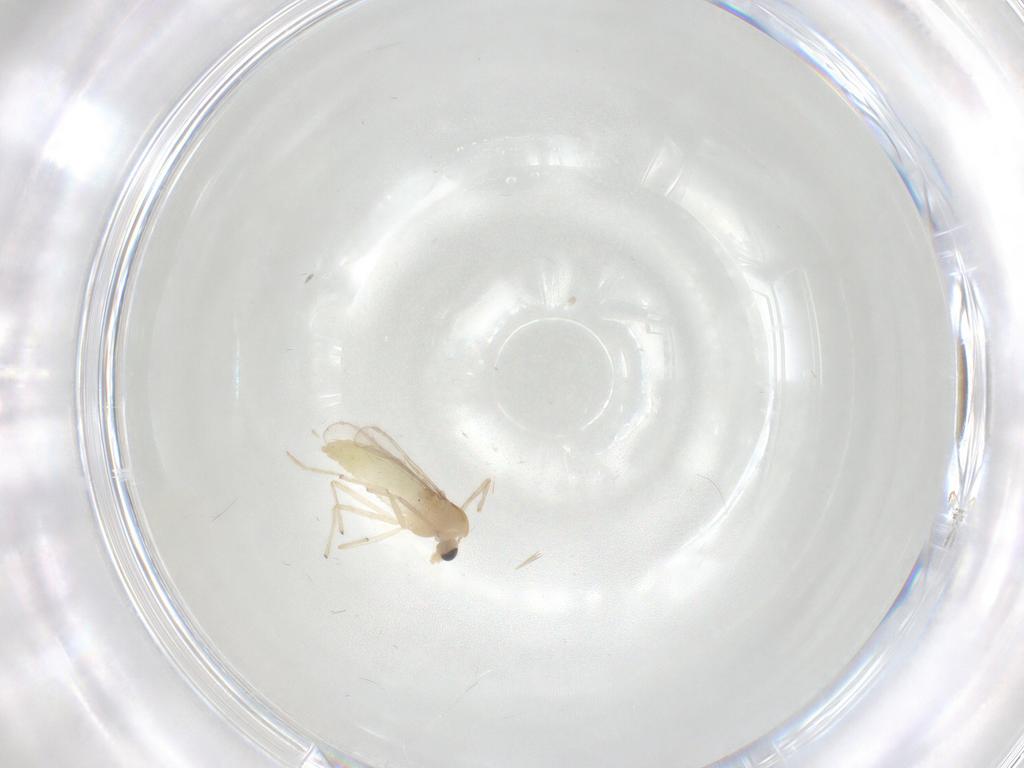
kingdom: Animalia
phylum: Arthropoda
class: Insecta
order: Diptera
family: Chironomidae
